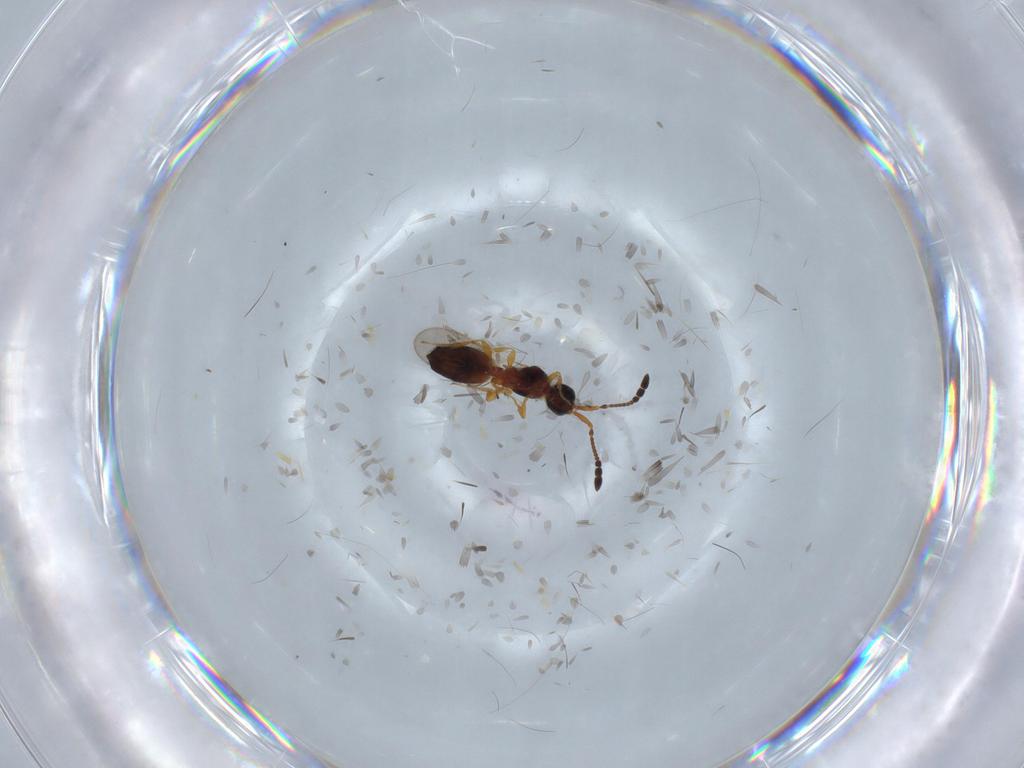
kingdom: Animalia
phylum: Arthropoda
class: Insecta
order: Hymenoptera
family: Diapriidae
